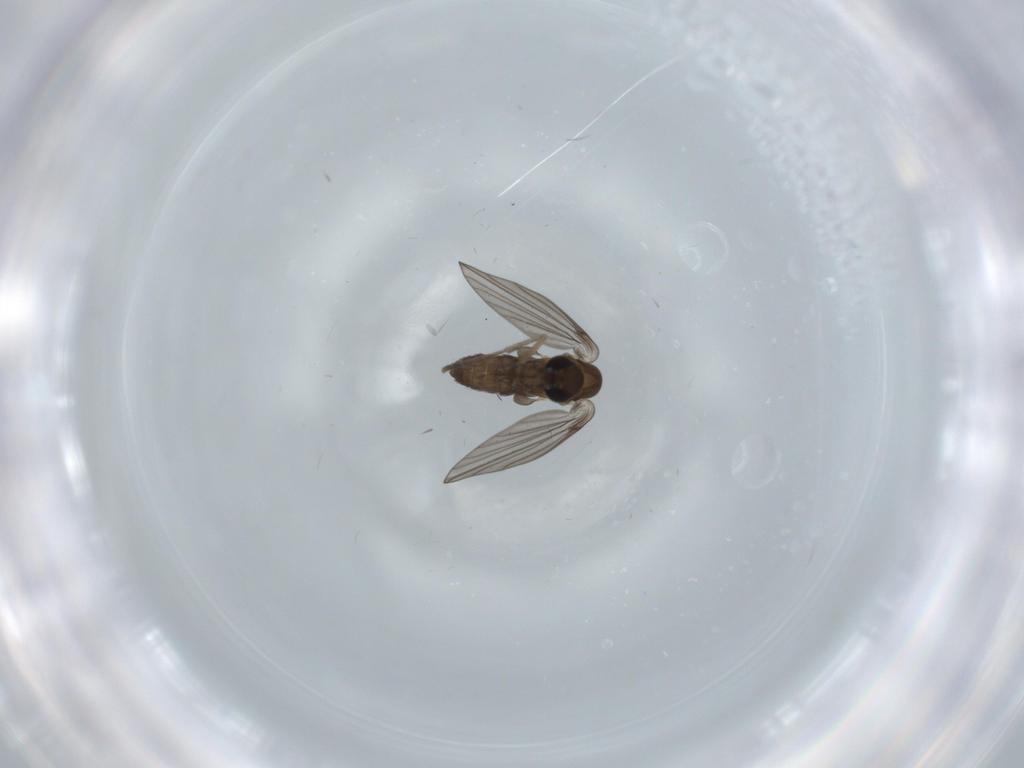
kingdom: Animalia
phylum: Arthropoda
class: Insecta
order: Diptera
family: Psychodidae
